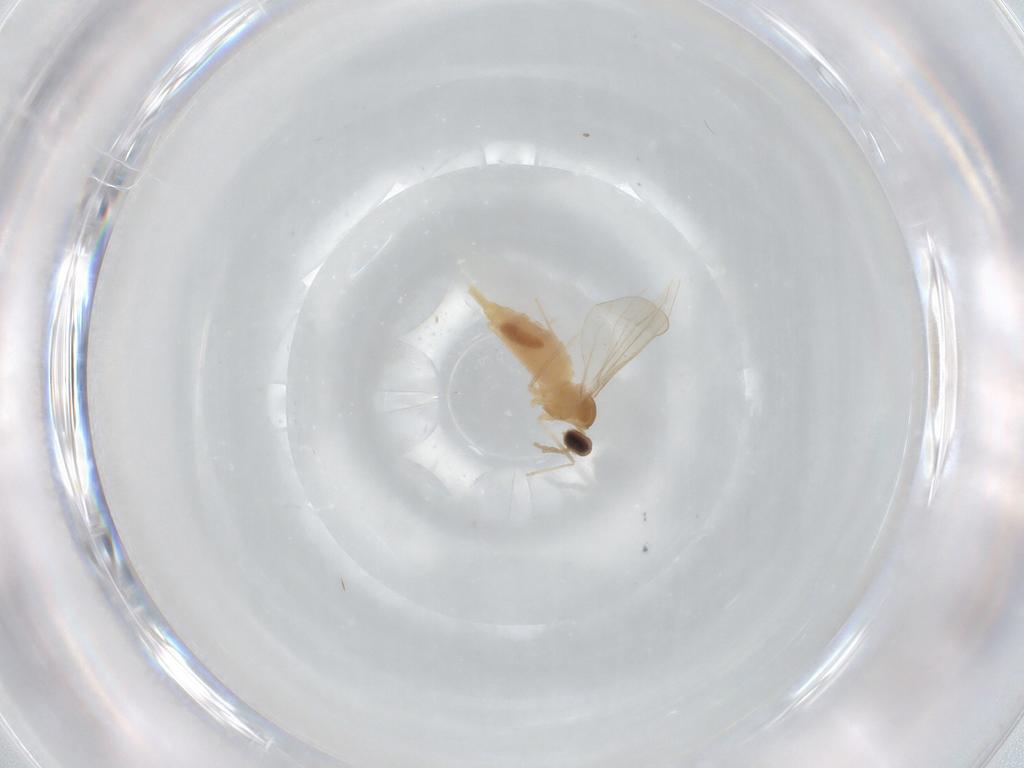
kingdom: Animalia
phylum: Arthropoda
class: Insecta
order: Diptera
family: Cecidomyiidae
